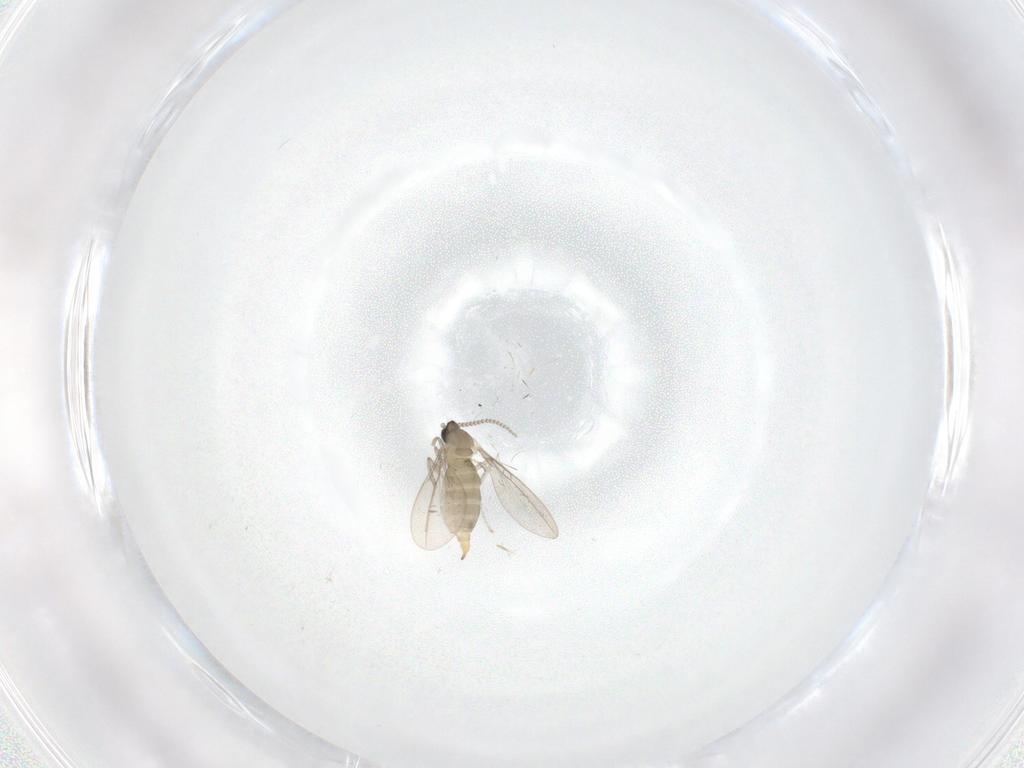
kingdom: Animalia
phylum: Arthropoda
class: Insecta
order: Diptera
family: Cecidomyiidae
